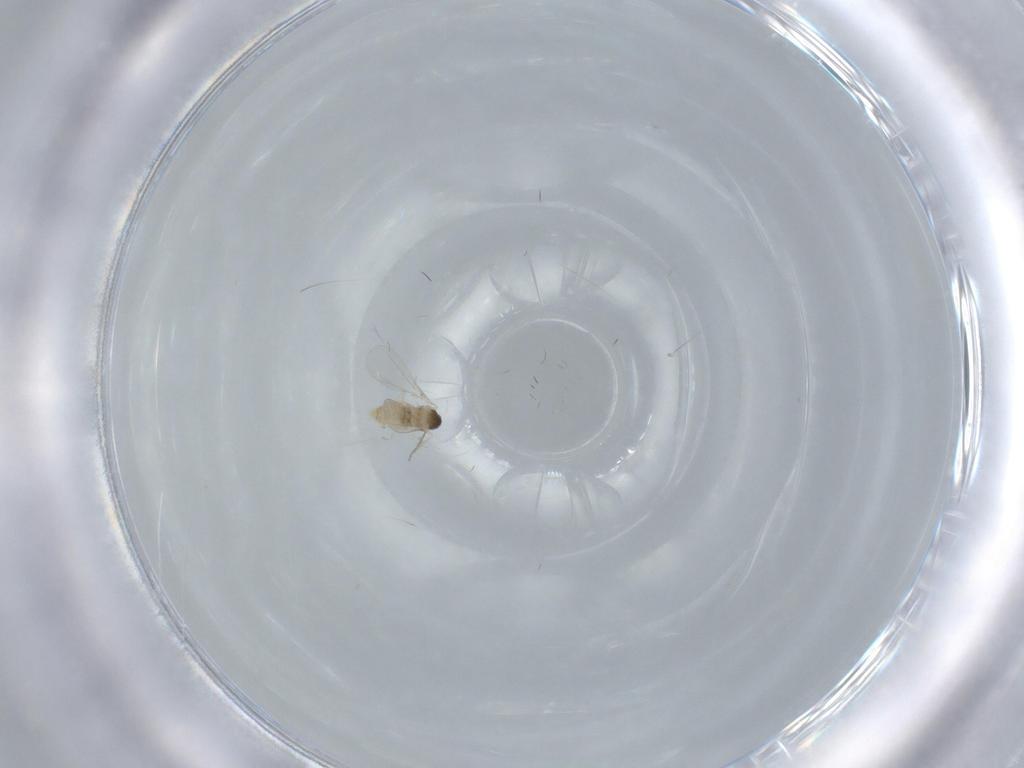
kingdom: Animalia
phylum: Arthropoda
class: Insecta
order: Diptera
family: Cecidomyiidae
